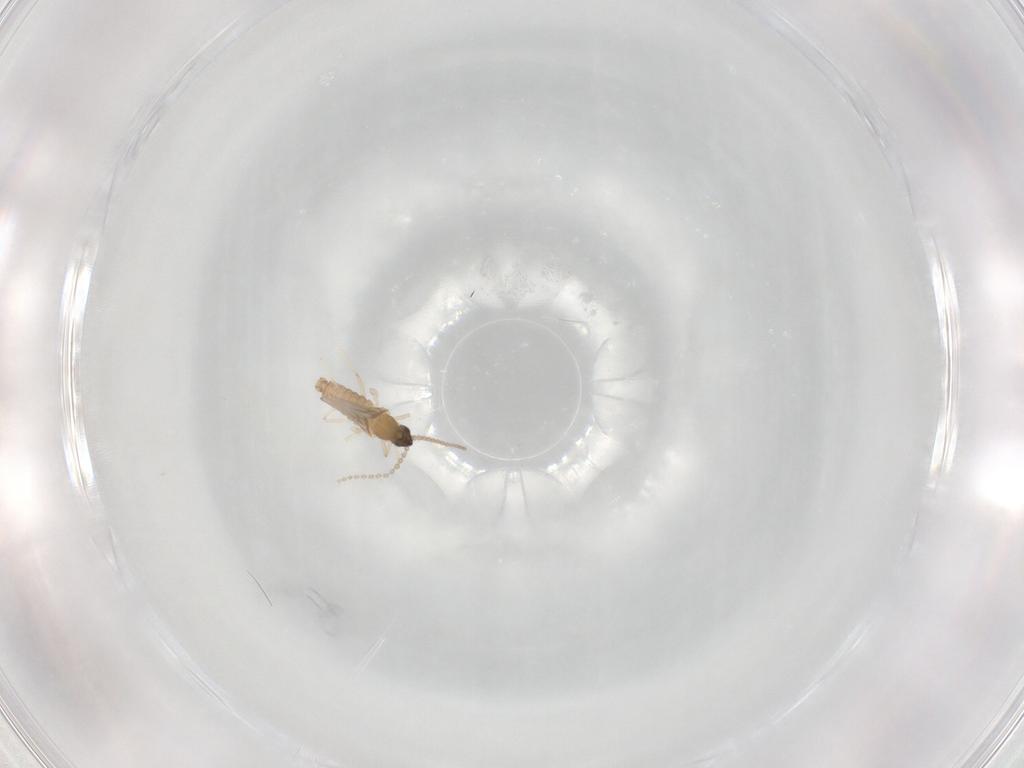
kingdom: Animalia
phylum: Arthropoda
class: Insecta
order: Diptera
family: Cecidomyiidae
